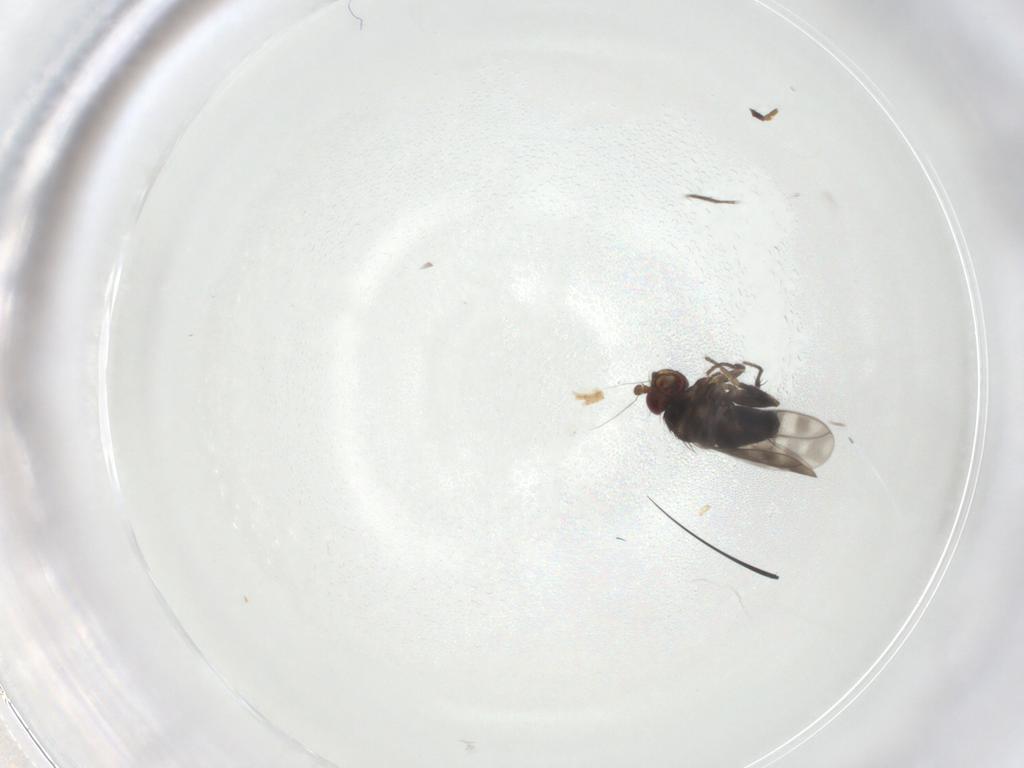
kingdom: Animalia
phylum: Arthropoda
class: Insecta
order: Diptera
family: Sphaeroceridae
